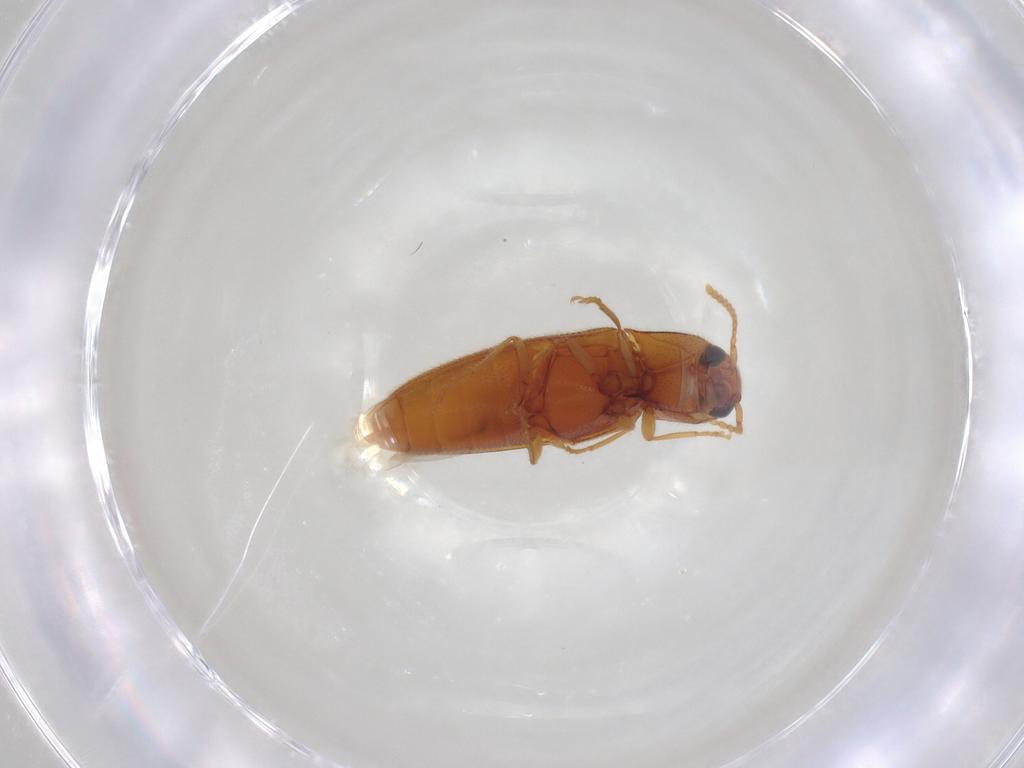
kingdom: Animalia
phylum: Arthropoda
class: Insecta
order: Coleoptera
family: Elateridae
